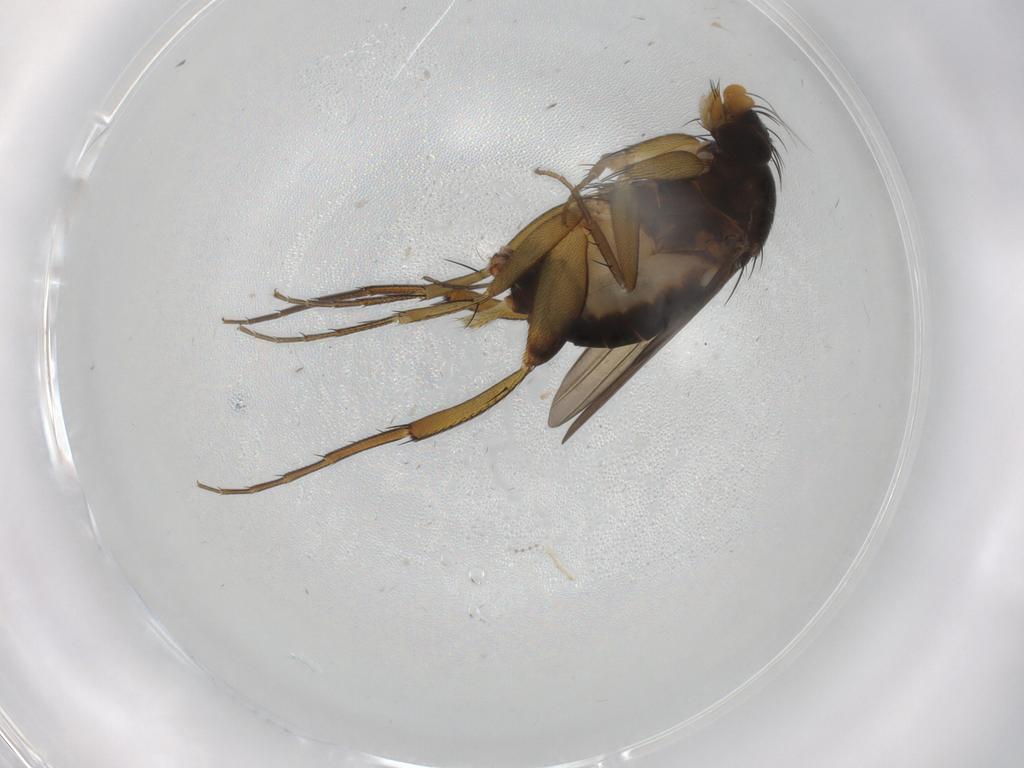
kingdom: Animalia
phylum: Arthropoda
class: Insecta
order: Diptera
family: Phoridae
